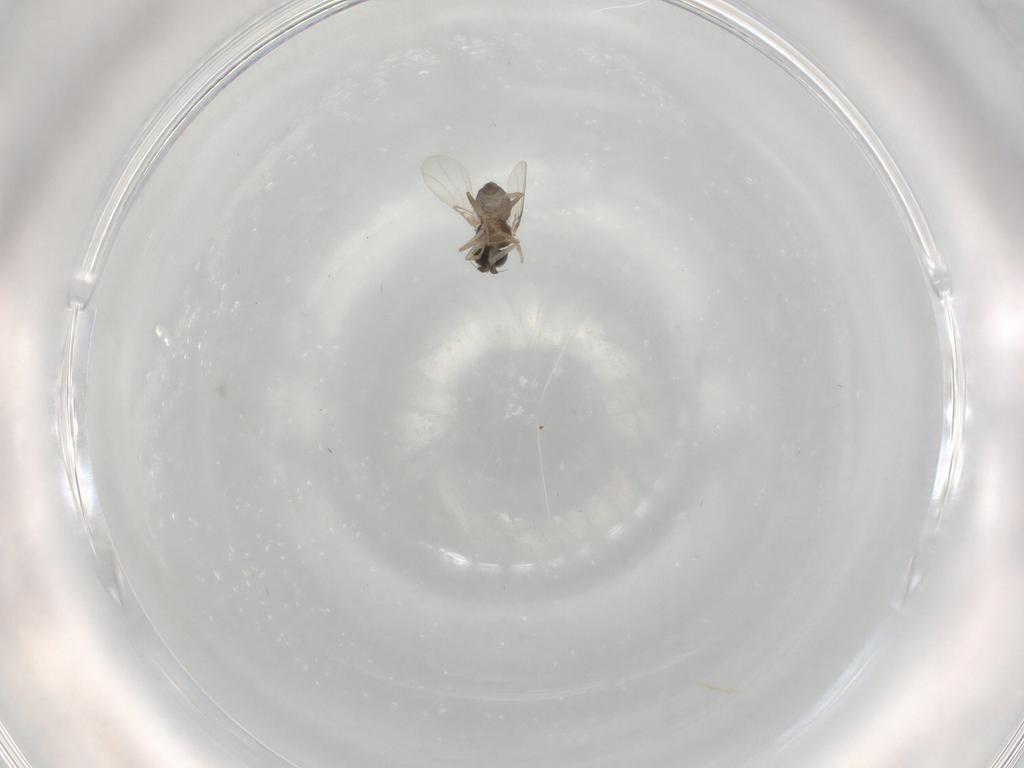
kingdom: Animalia
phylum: Arthropoda
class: Insecta
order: Diptera
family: Phoridae
